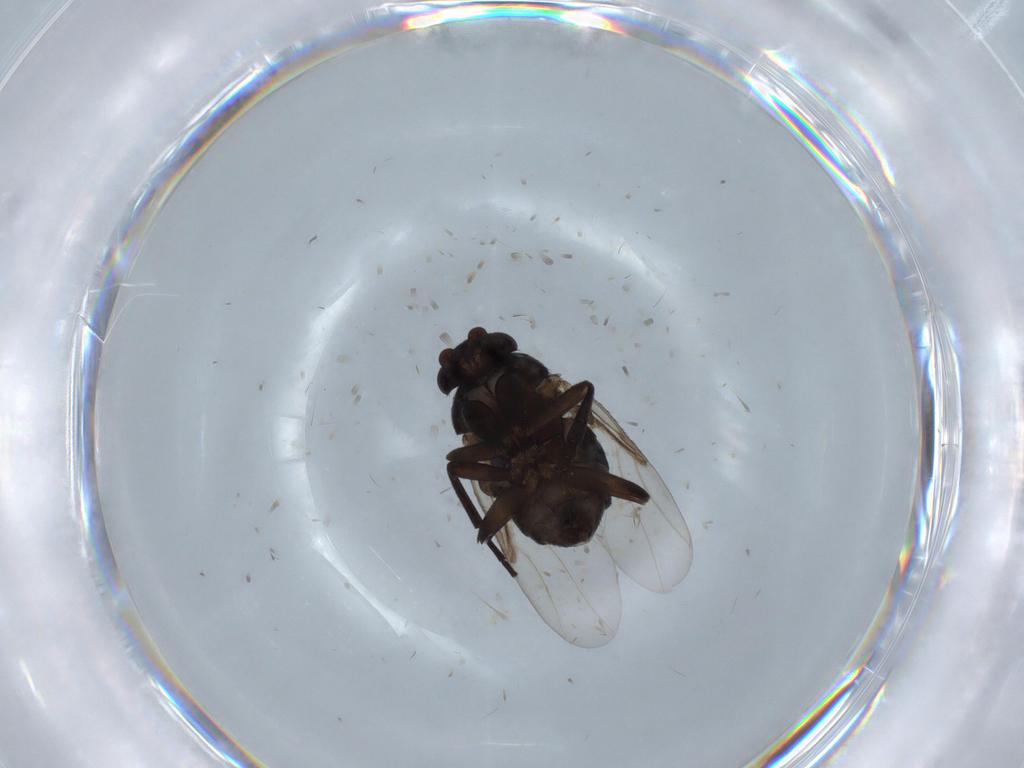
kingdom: Animalia
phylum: Arthropoda
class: Insecta
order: Diptera
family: Phoridae
